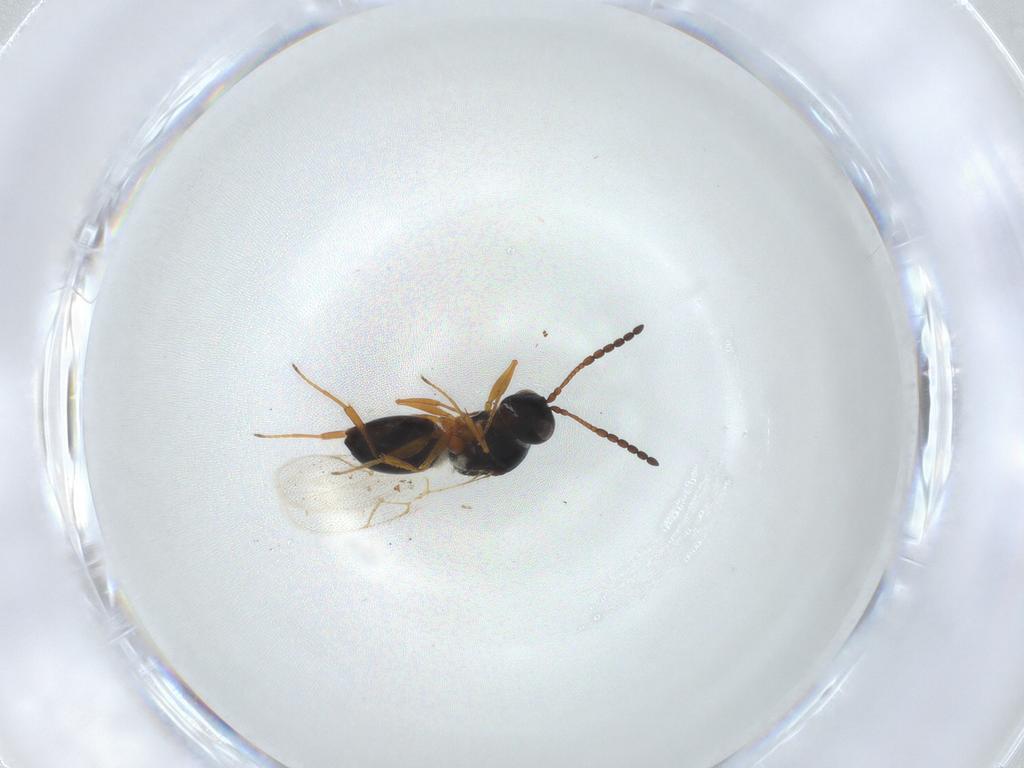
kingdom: Animalia
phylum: Arthropoda
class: Insecta
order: Hymenoptera
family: Figitidae
